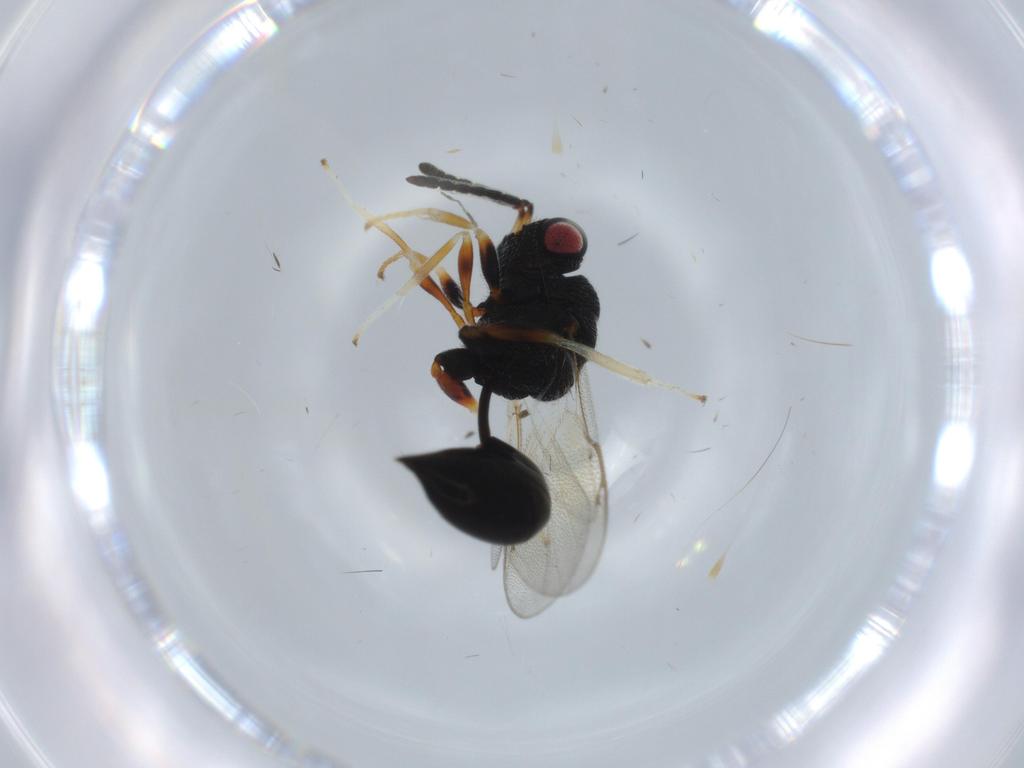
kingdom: Animalia
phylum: Arthropoda
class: Insecta
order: Hymenoptera
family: Eurytomidae
